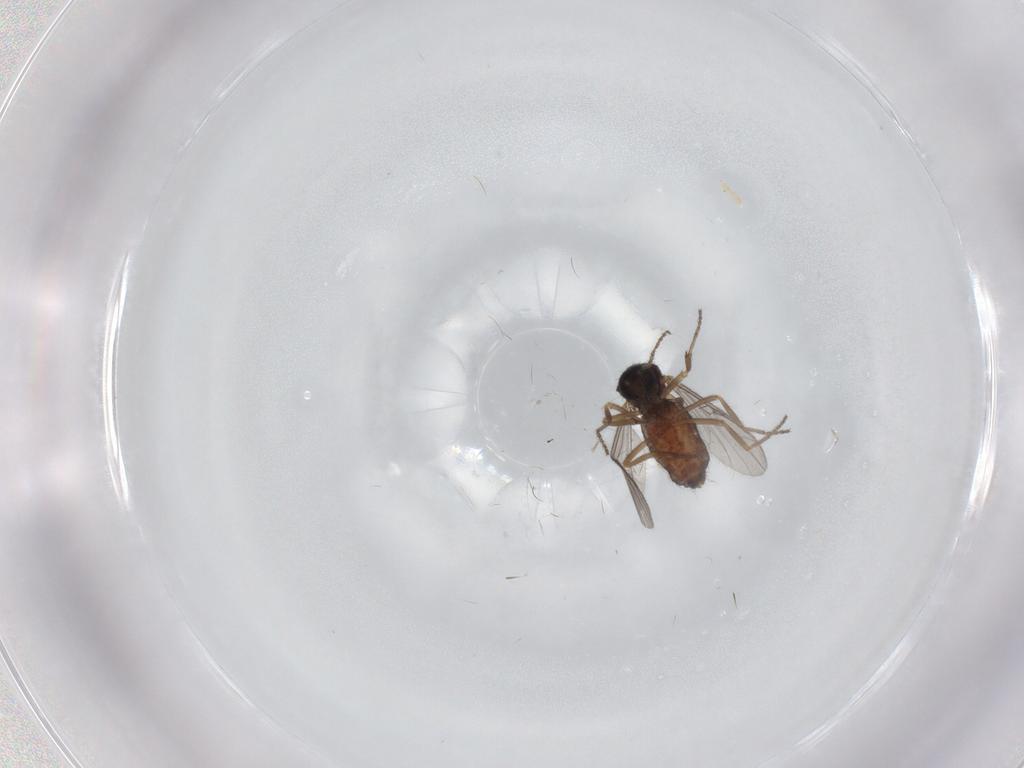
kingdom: Animalia
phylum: Arthropoda
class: Insecta
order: Diptera
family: Ceratopogonidae
